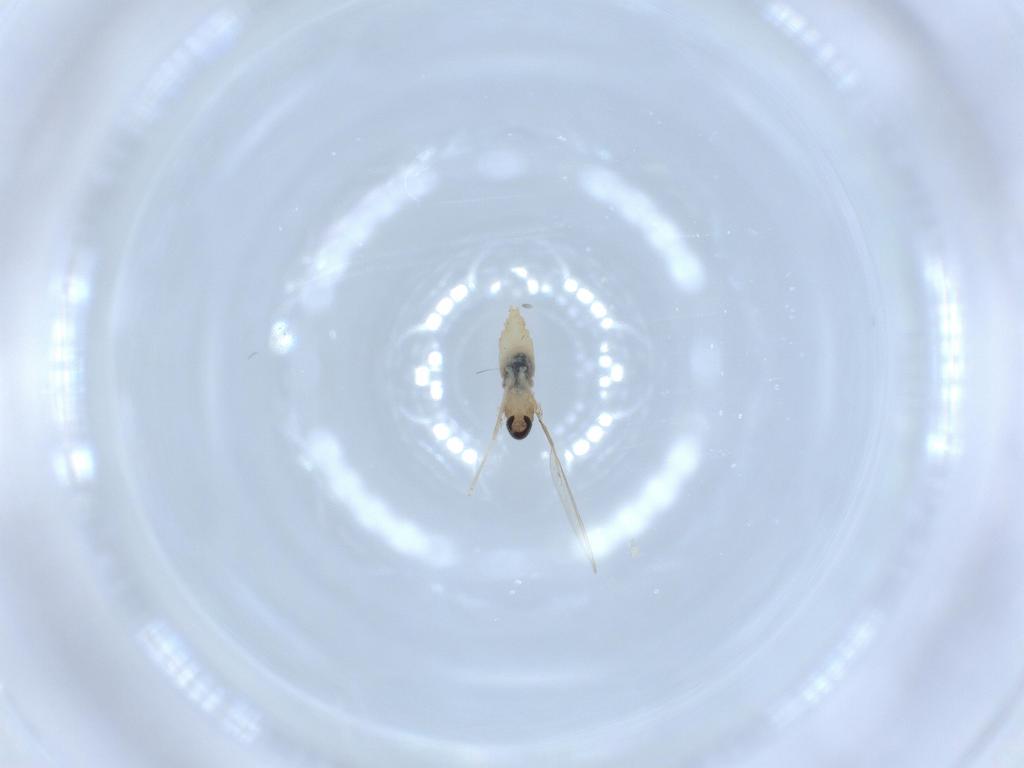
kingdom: Animalia
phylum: Arthropoda
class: Insecta
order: Diptera
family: Cecidomyiidae
